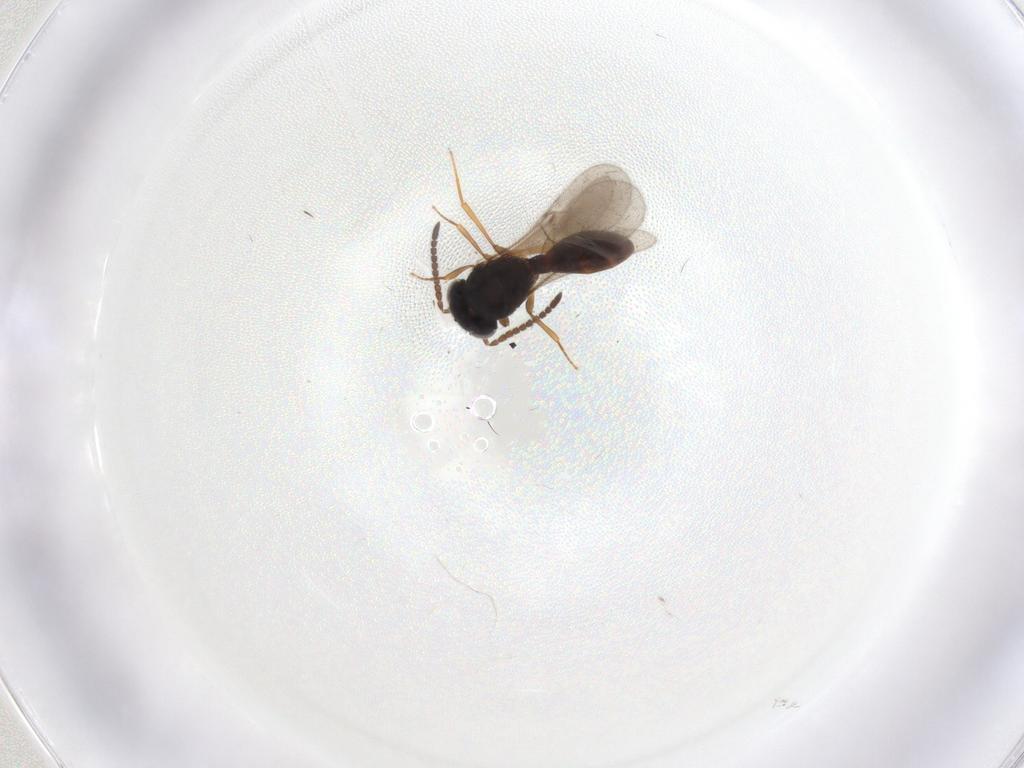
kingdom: Animalia
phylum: Arthropoda
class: Insecta
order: Hymenoptera
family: Scelionidae
